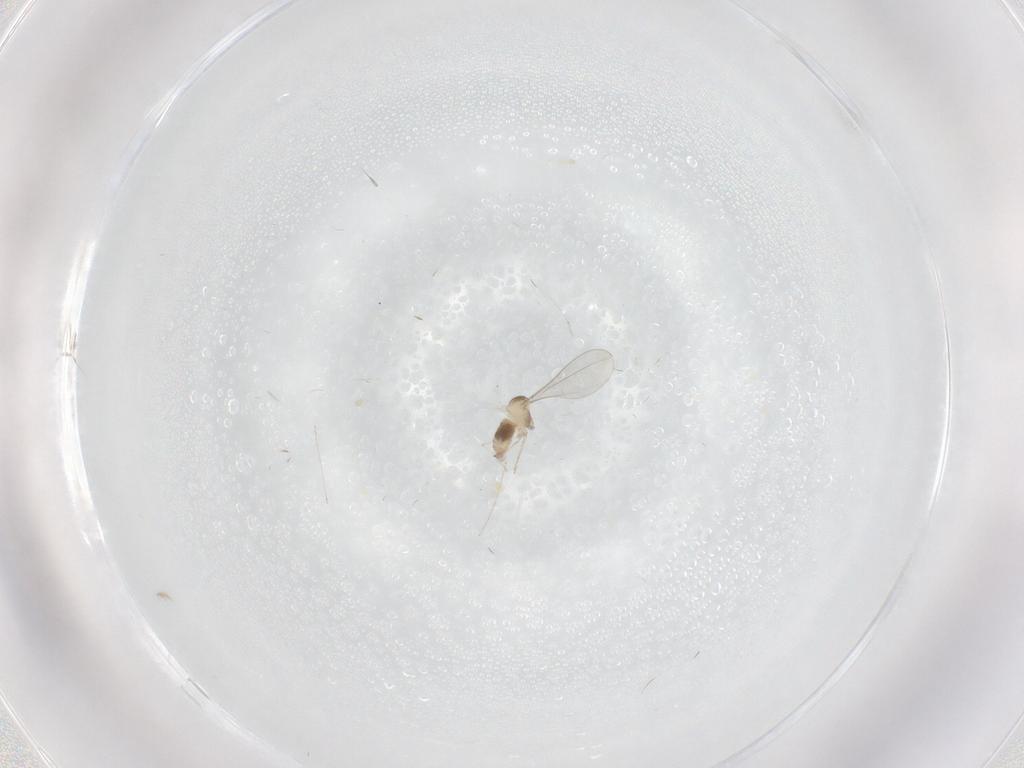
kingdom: Animalia
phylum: Arthropoda
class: Insecta
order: Diptera
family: Cecidomyiidae
